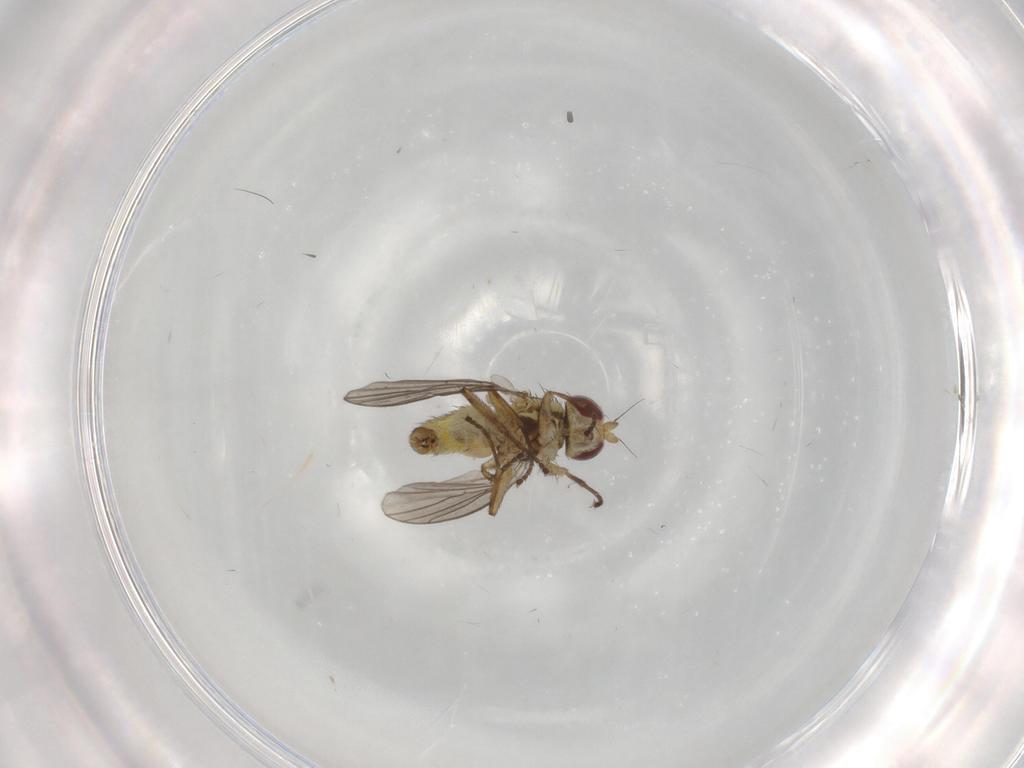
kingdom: Animalia
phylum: Arthropoda
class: Insecta
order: Diptera
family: Agromyzidae
